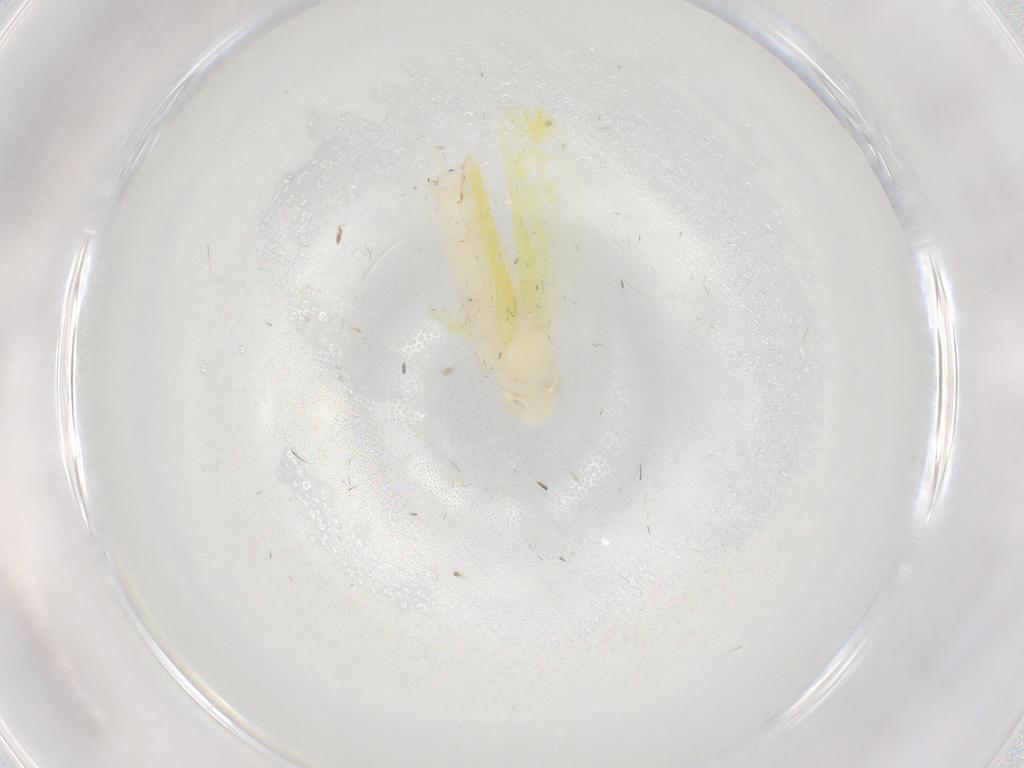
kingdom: Animalia
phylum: Arthropoda
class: Insecta
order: Hemiptera
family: Cicadellidae
